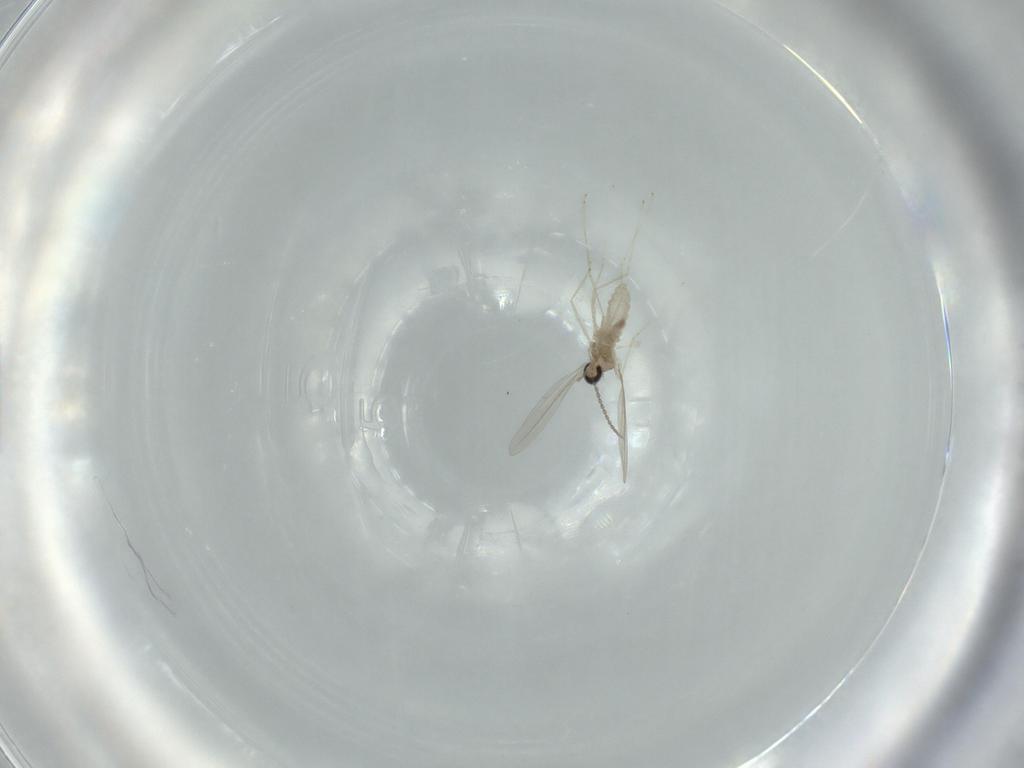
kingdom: Animalia
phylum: Arthropoda
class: Insecta
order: Diptera
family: Cecidomyiidae
